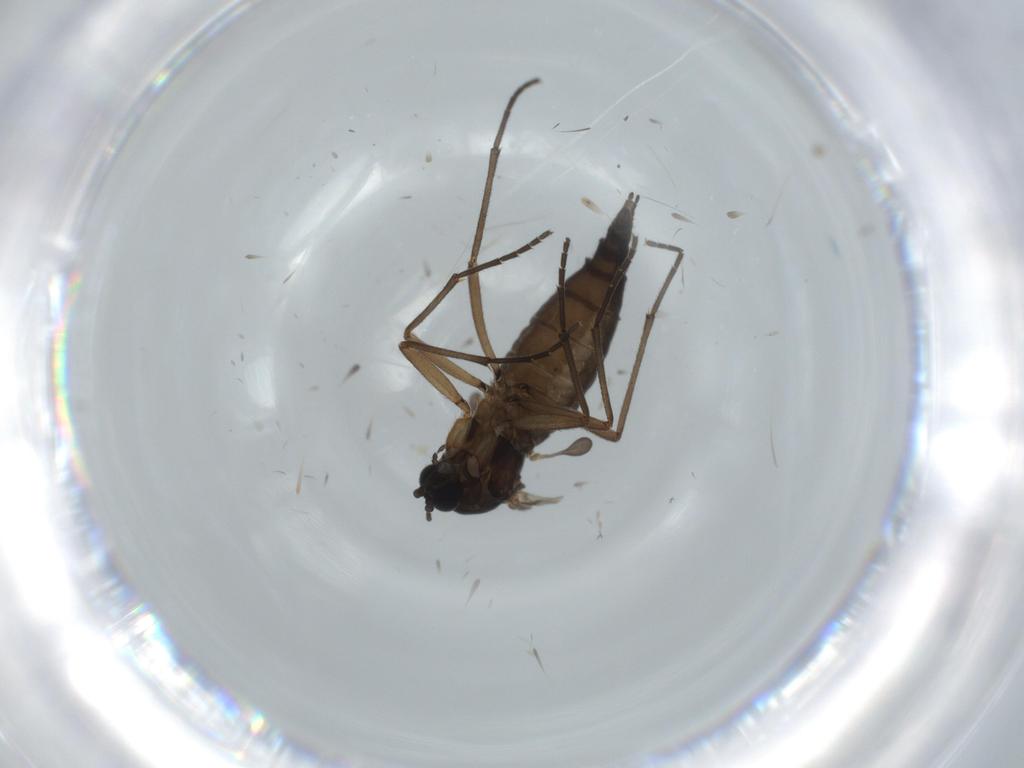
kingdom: Animalia
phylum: Arthropoda
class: Insecta
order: Diptera
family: Sciaridae
